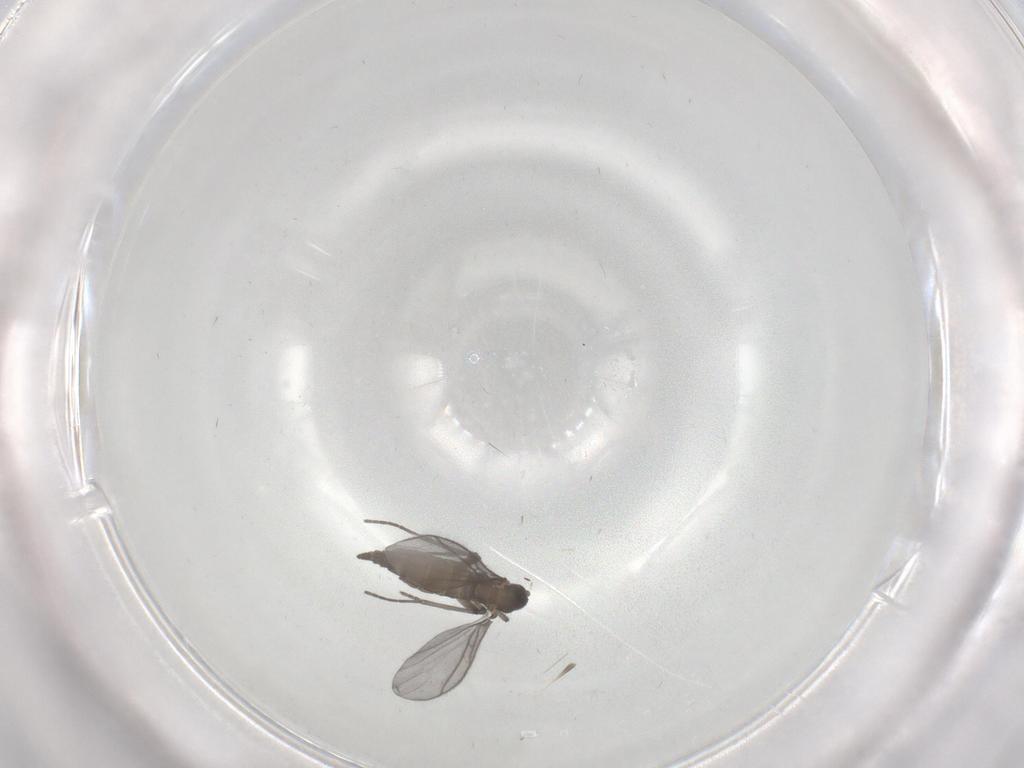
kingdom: Animalia
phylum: Arthropoda
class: Insecta
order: Diptera
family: Sciaridae
